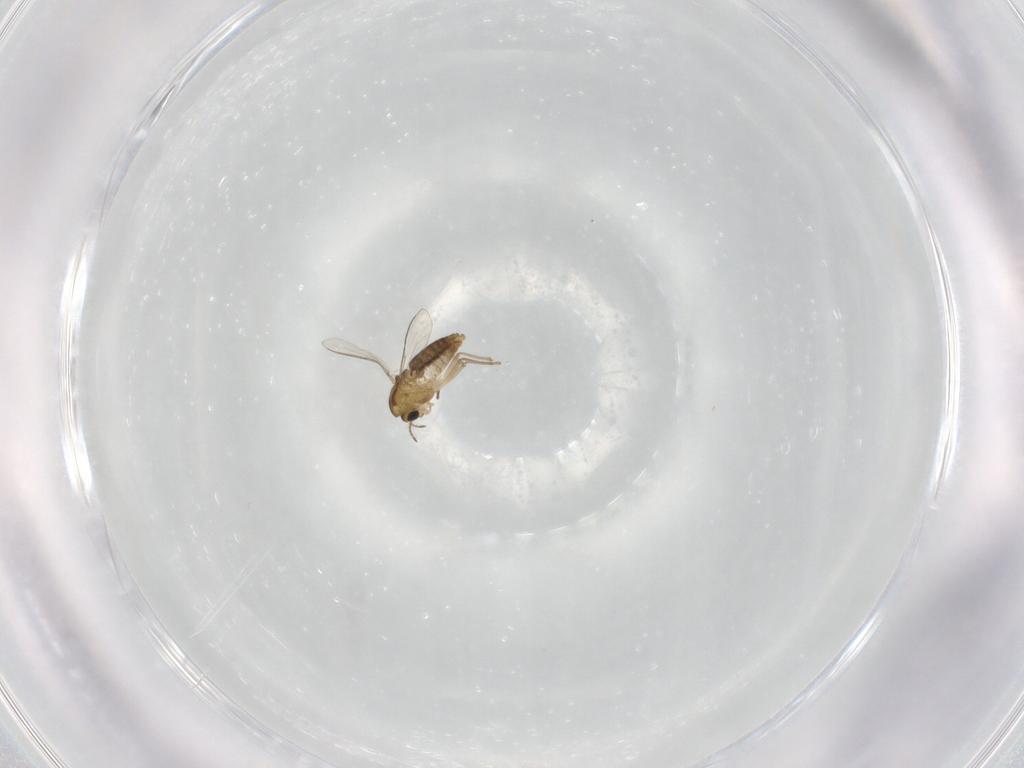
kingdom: Animalia
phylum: Arthropoda
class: Insecta
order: Diptera
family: Chironomidae
